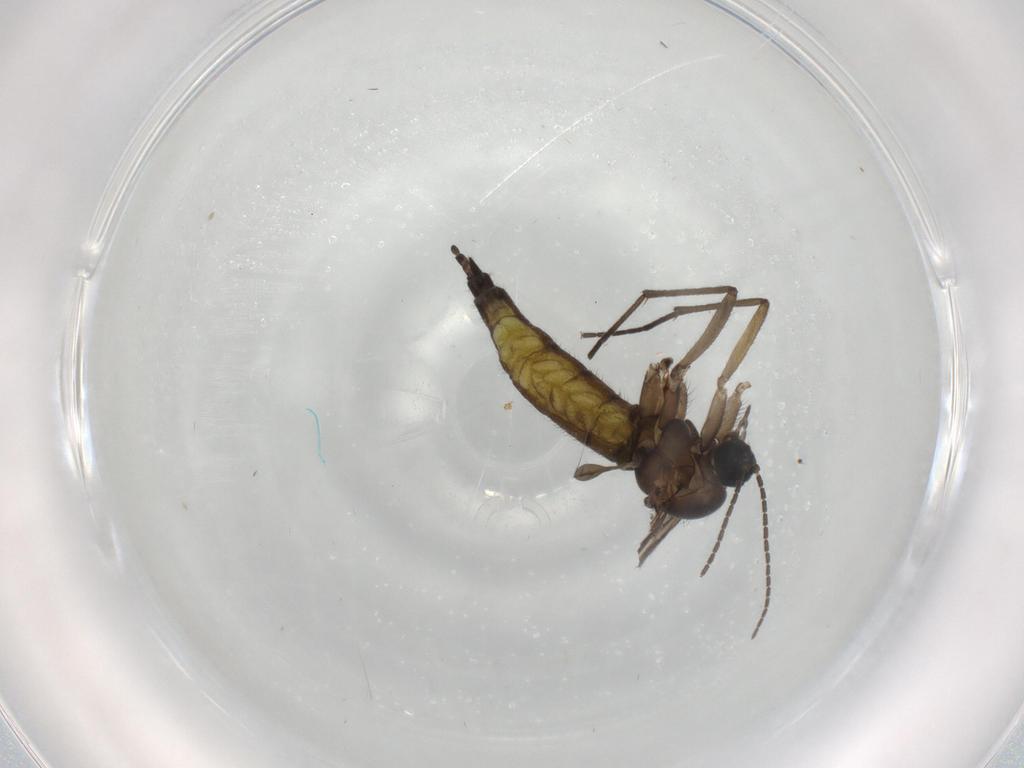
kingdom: Animalia
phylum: Arthropoda
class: Insecta
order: Diptera
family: Sciaridae
